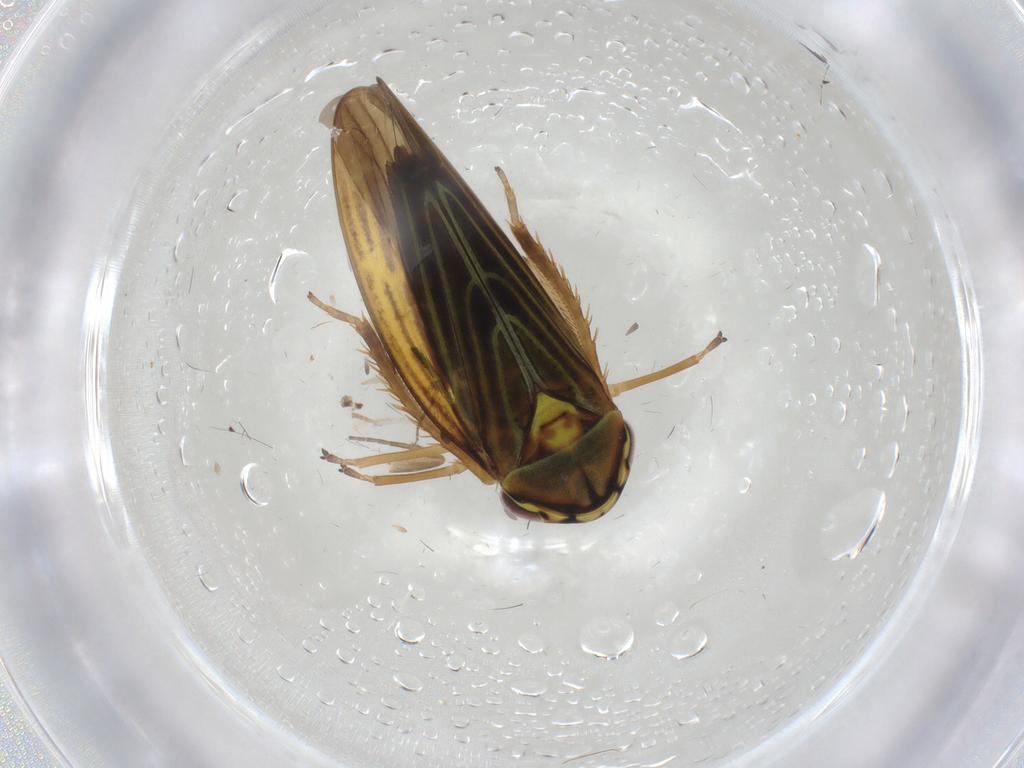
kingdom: Animalia
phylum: Arthropoda
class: Insecta
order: Hemiptera
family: Cicadellidae
